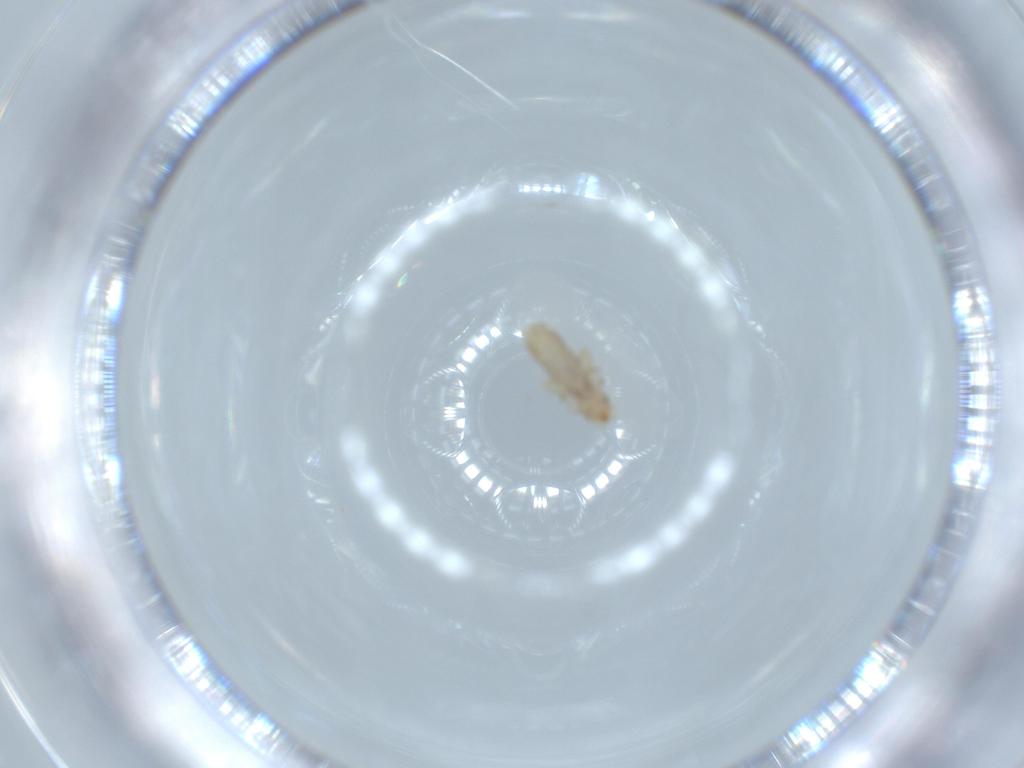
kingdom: Animalia
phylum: Arthropoda
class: Insecta
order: Psocodea
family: Liposcelididae
